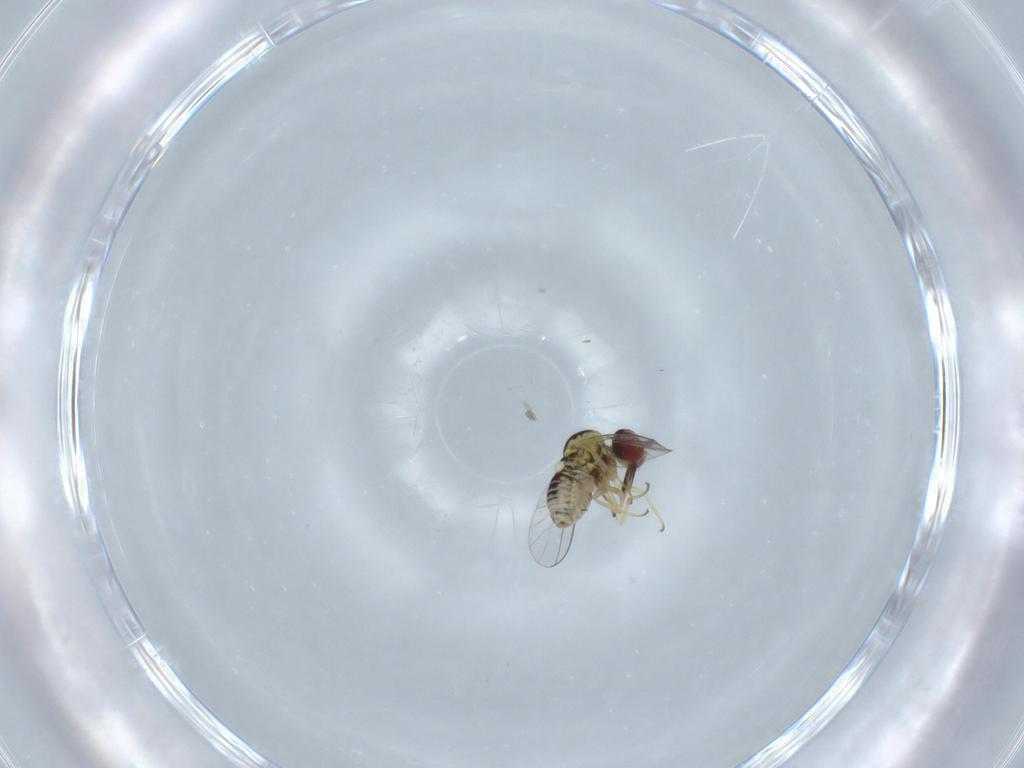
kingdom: Animalia
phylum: Arthropoda
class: Insecta
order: Diptera
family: Ceratopogonidae
